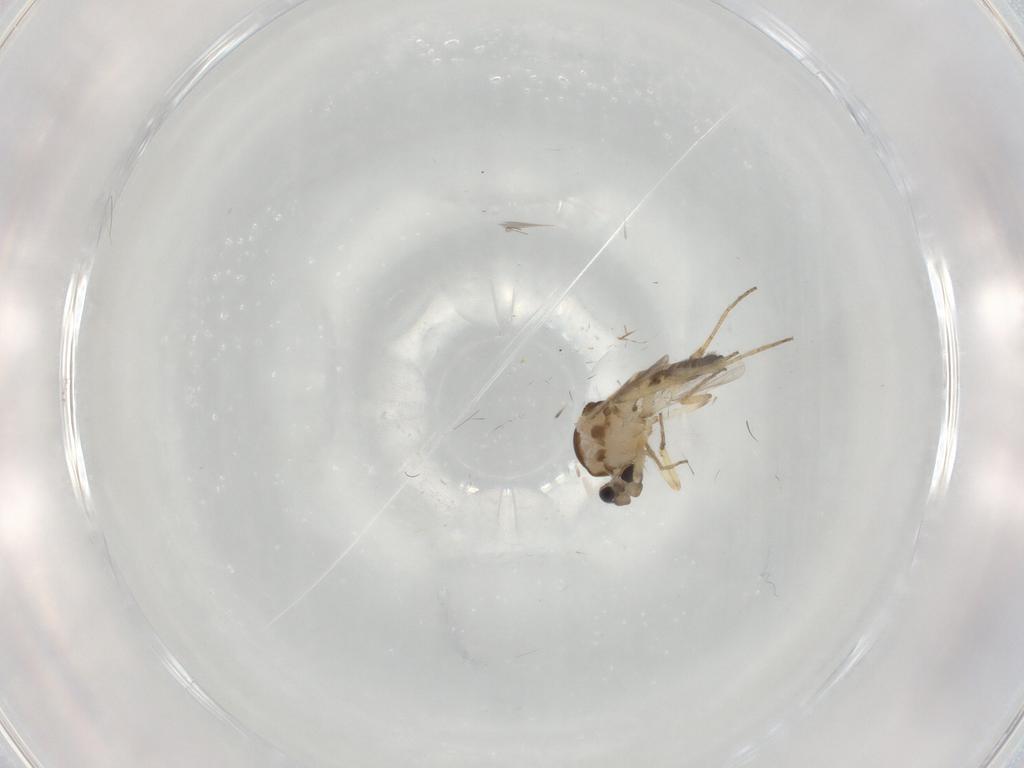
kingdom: Animalia
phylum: Arthropoda
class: Insecta
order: Diptera
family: Ceratopogonidae
